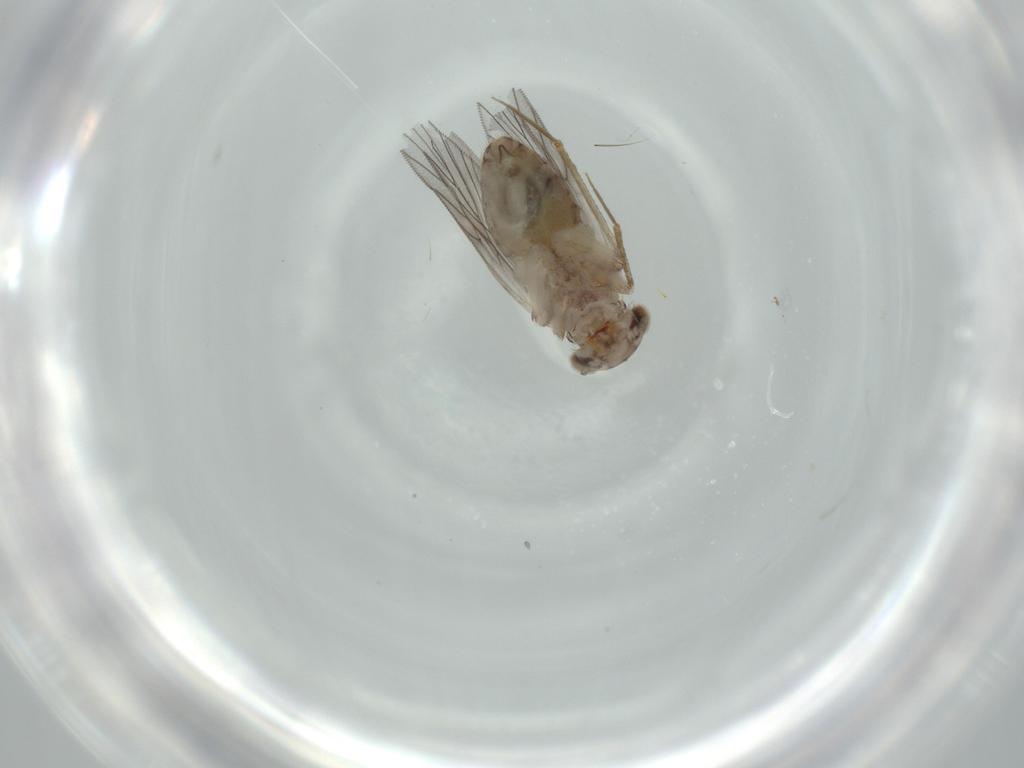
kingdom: Animalia
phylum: Arthropoda
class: Insecta
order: Psocodea
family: Lepidopsocidae
